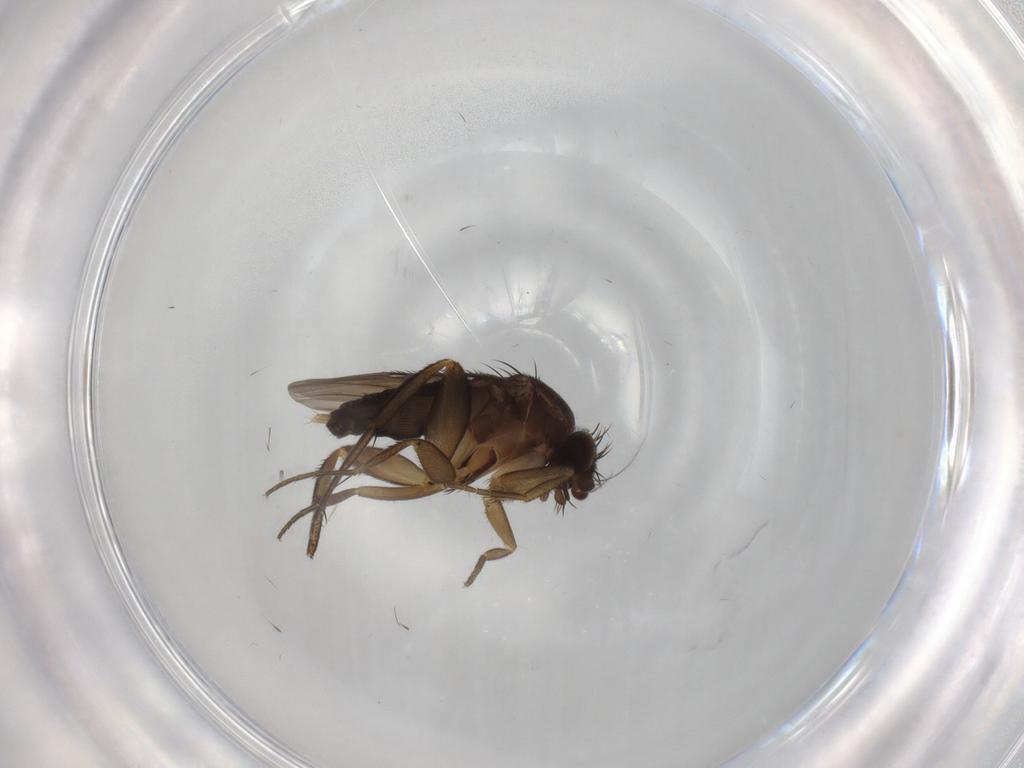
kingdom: Animalia
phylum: Arthropoda
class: Insecta
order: Diptera
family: Phoridae
